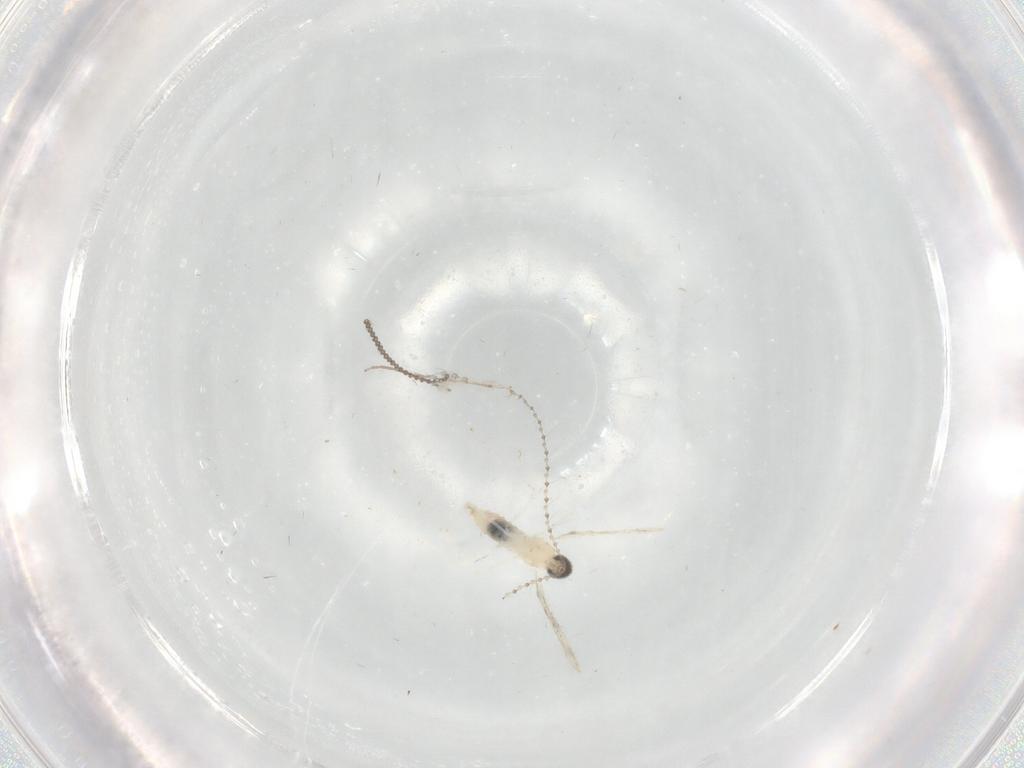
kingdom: Animalia
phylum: Arthropoda
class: Insecta
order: Diptera
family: Cecidomyiidae
